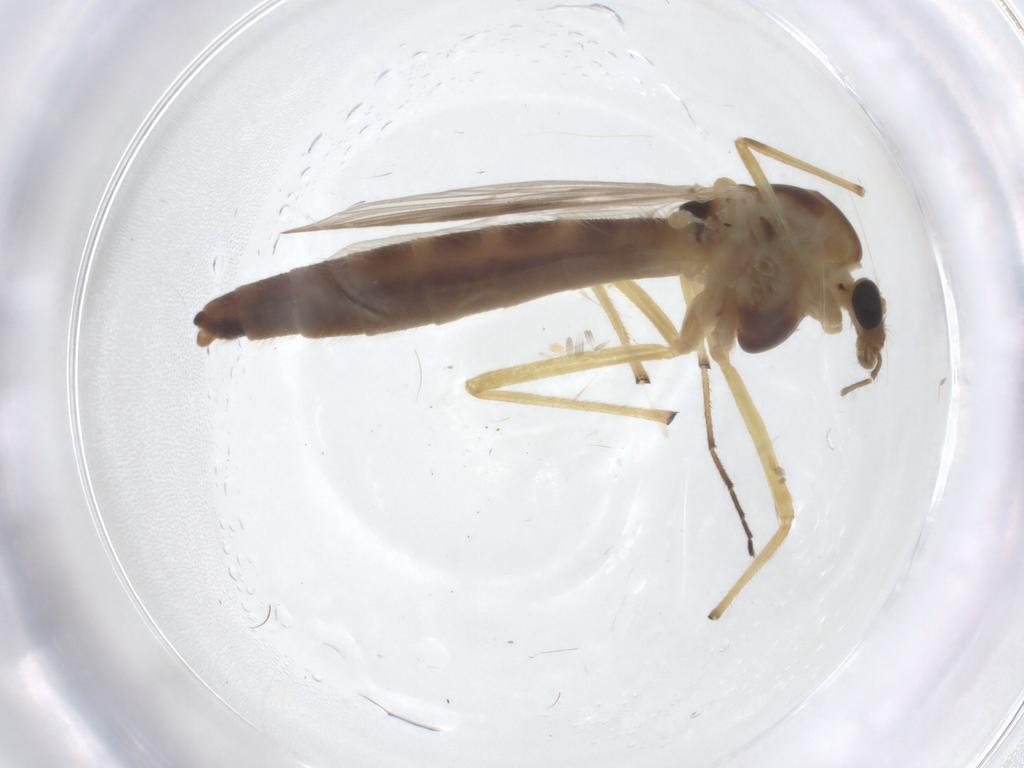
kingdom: Animalia
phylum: Arthropoda
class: Insecta
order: Diptera
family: Chironomidae
